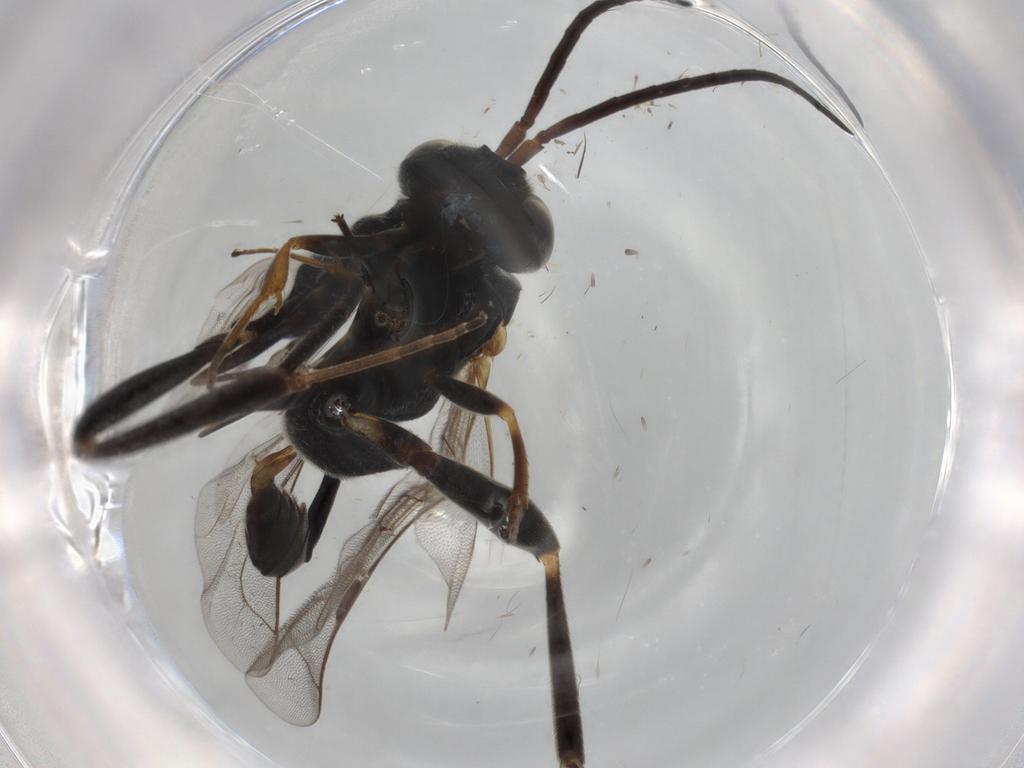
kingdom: Animalia
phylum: Arthropoda
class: Insecta
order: Hymenoptera
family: Evaniidae
